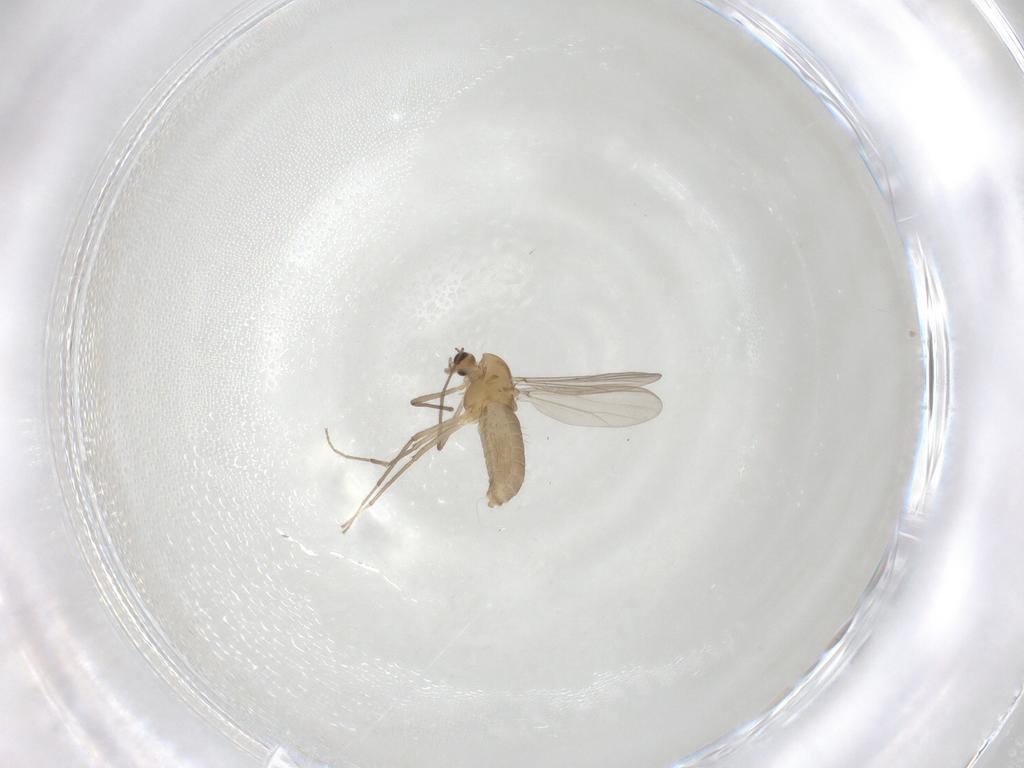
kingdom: Animalia
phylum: Arthropoda
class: Insecta
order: Diptera
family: Chironomidae
